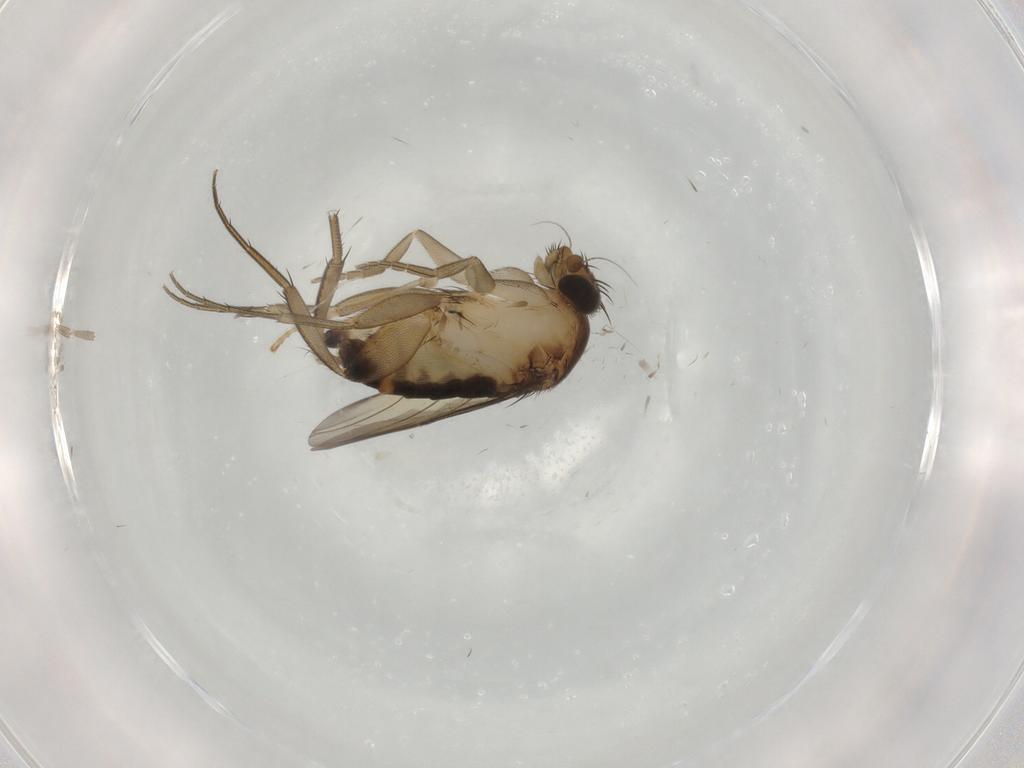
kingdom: Animalia
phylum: Arthropoda
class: Insecta
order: Diptera
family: Psychodidae
